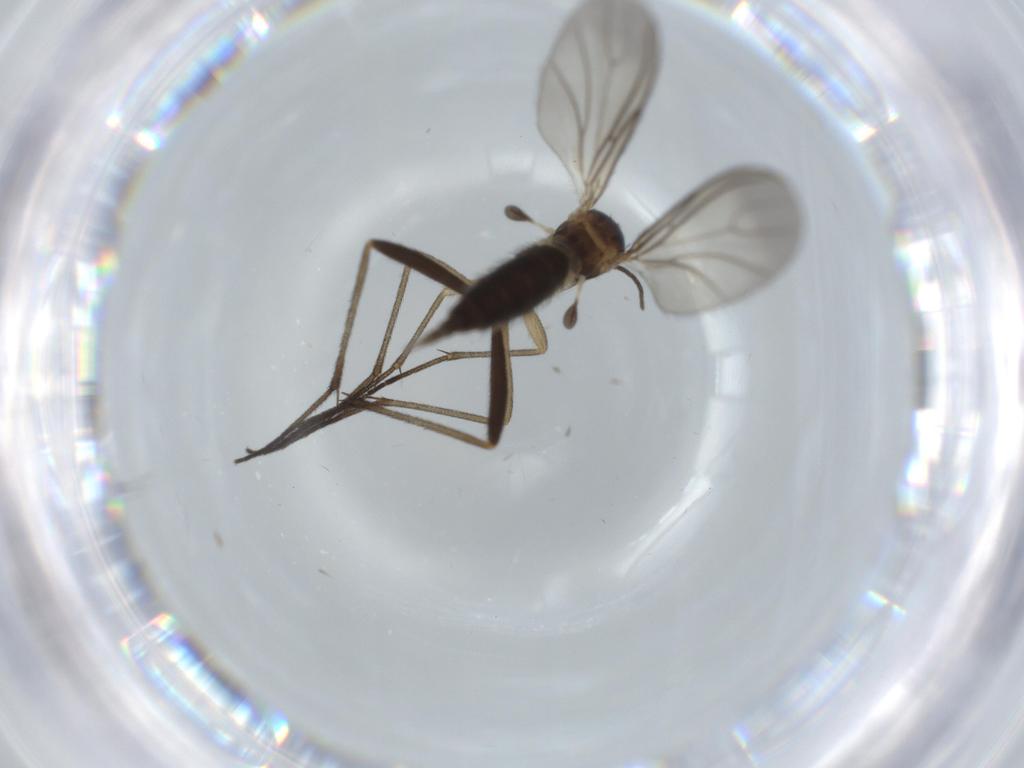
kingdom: Animalia
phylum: Arthropoda
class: Insecta
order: Diptera
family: Sciaridae
